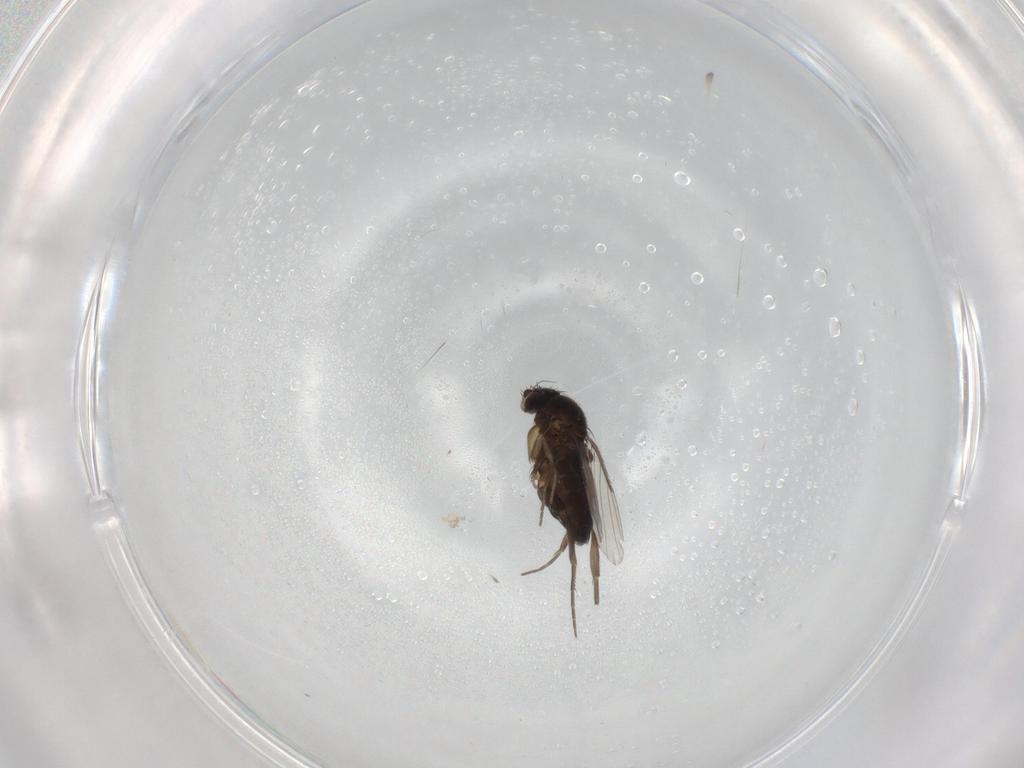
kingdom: Animalia
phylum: Arthropoda
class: Insecta
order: Diptera
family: Phoridae
